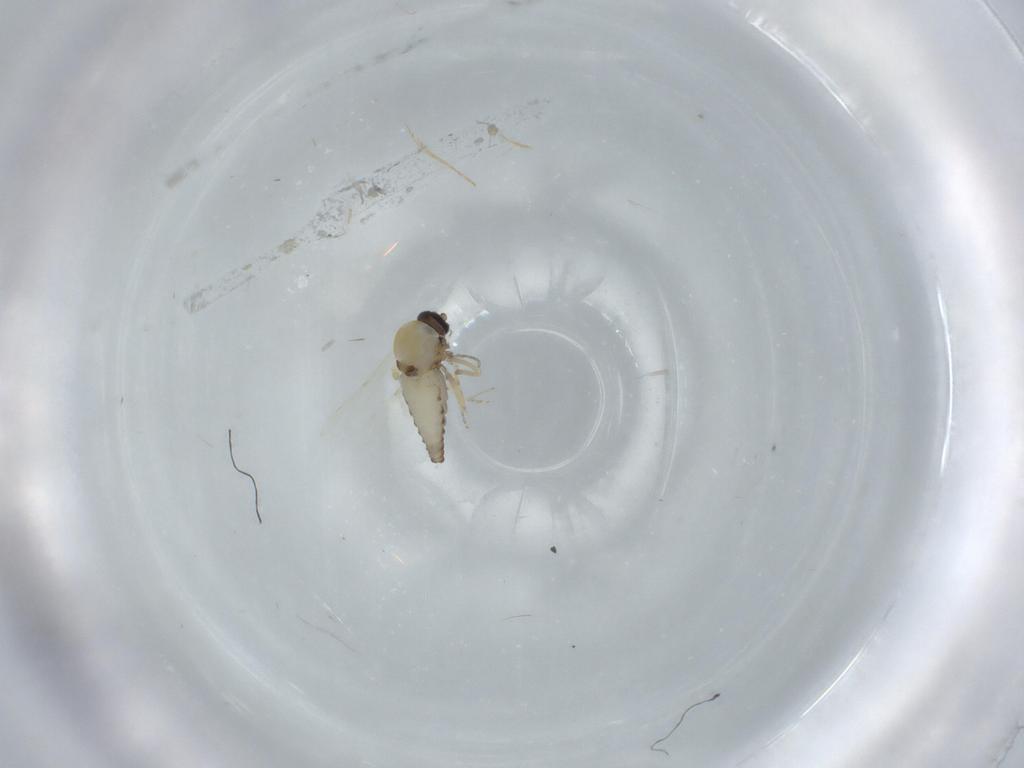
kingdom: Animalia
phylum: Arthropoda
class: Insecta
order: Diptera
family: Ceratopogonidae
